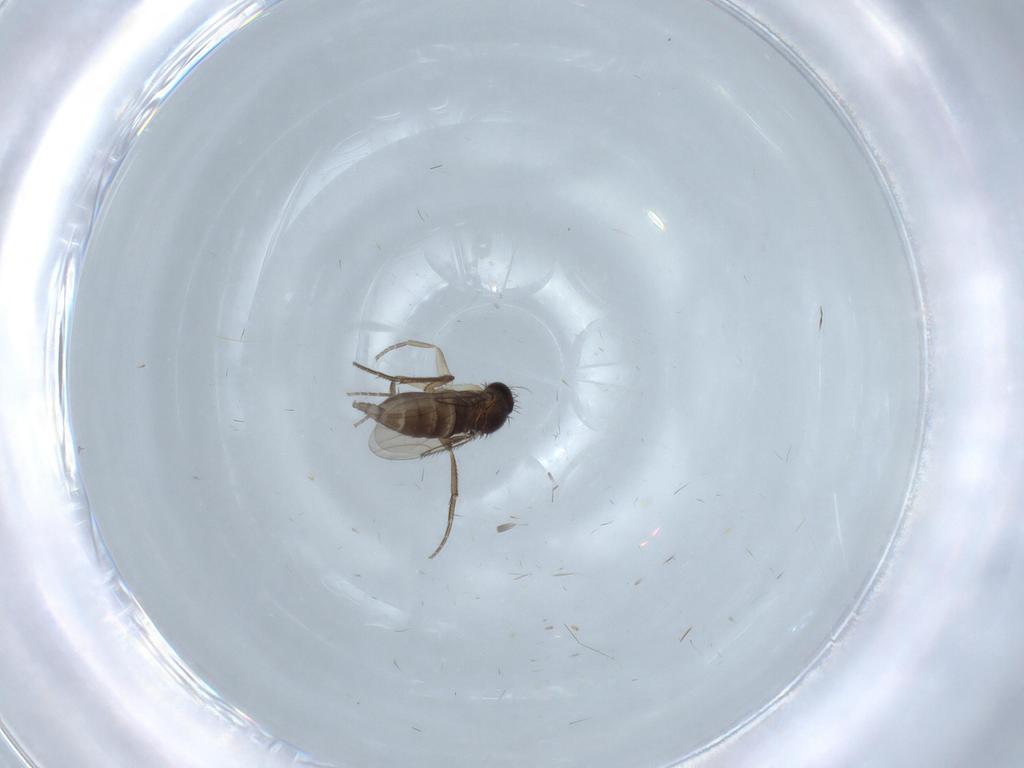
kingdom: Animalia
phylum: Arthropoda
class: Insecta
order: Diptera
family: Phoridae
